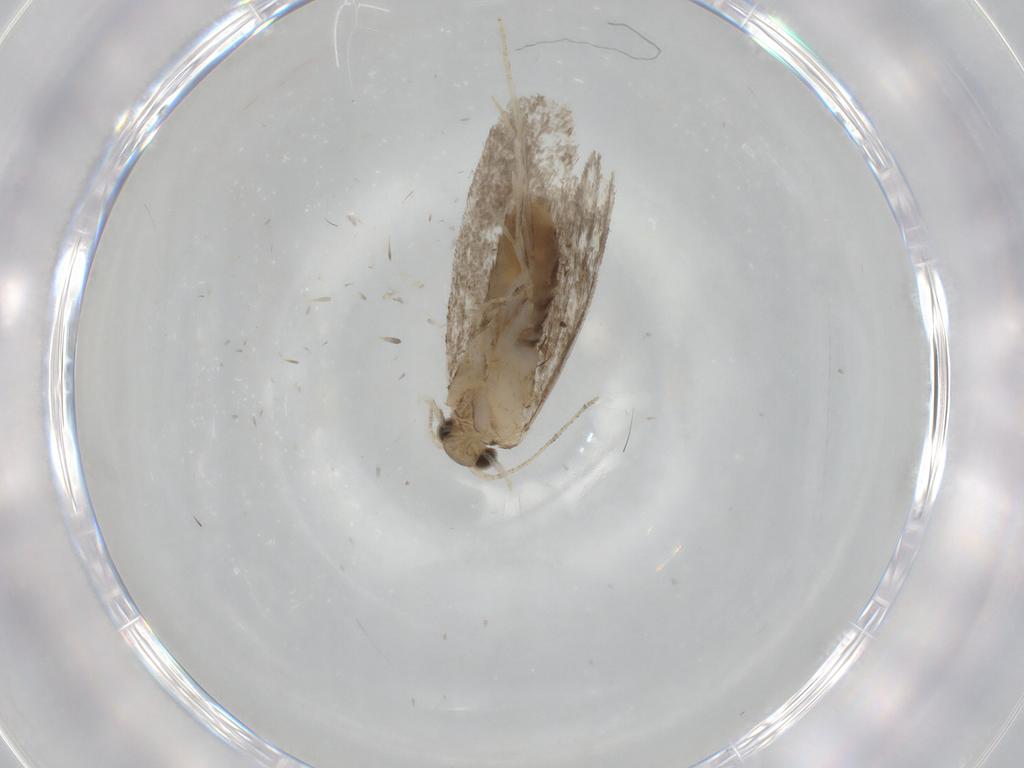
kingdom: Animalia
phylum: Arthropoda
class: Insecta
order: Lepidoptera
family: Tineidae
